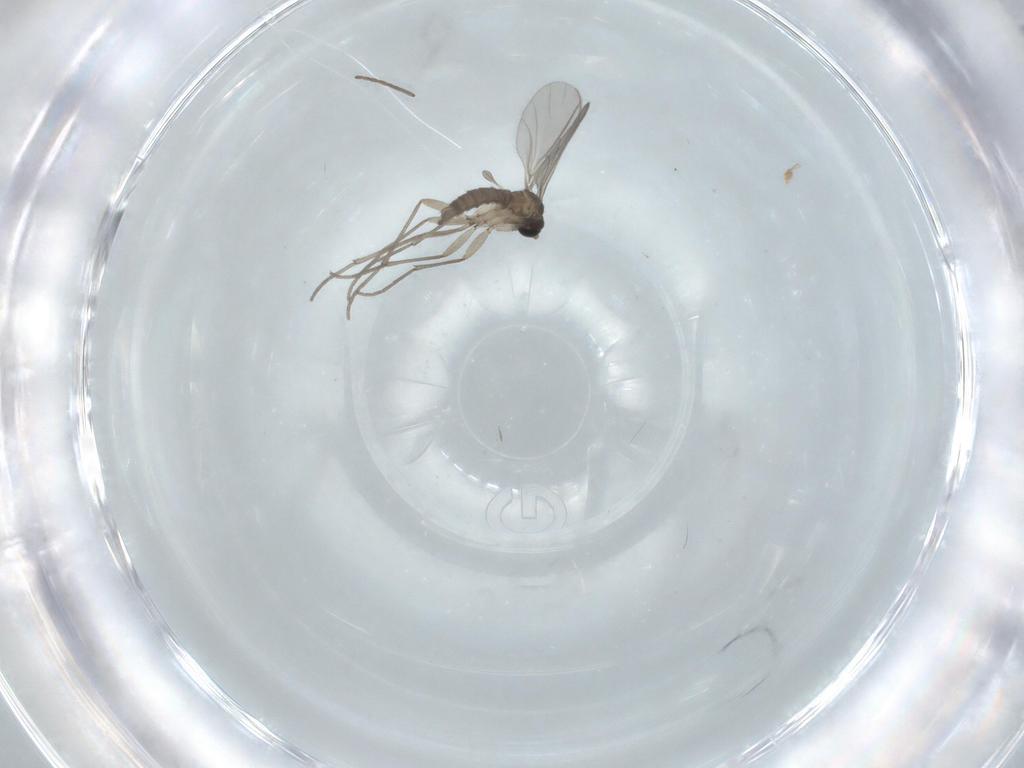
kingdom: Animalia
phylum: Arthropoda
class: Insecta
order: Diptera
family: Sciaridae
